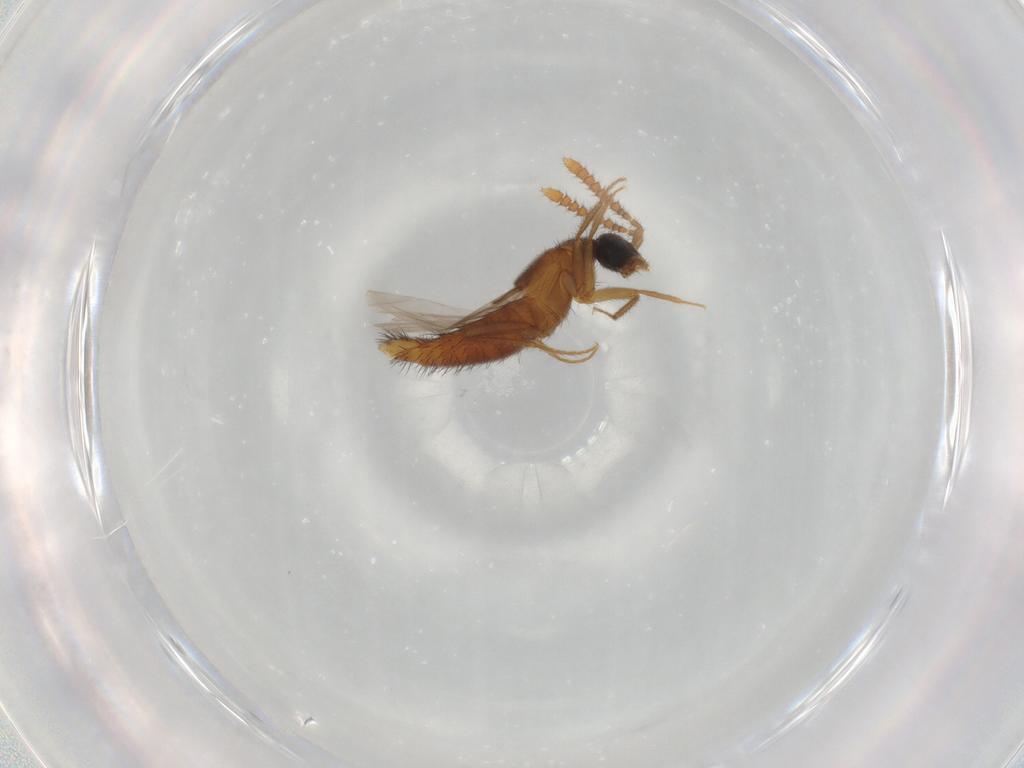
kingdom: Animalia
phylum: Arthropoda
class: Insecta
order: Coleoptera
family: Staphylinidae
